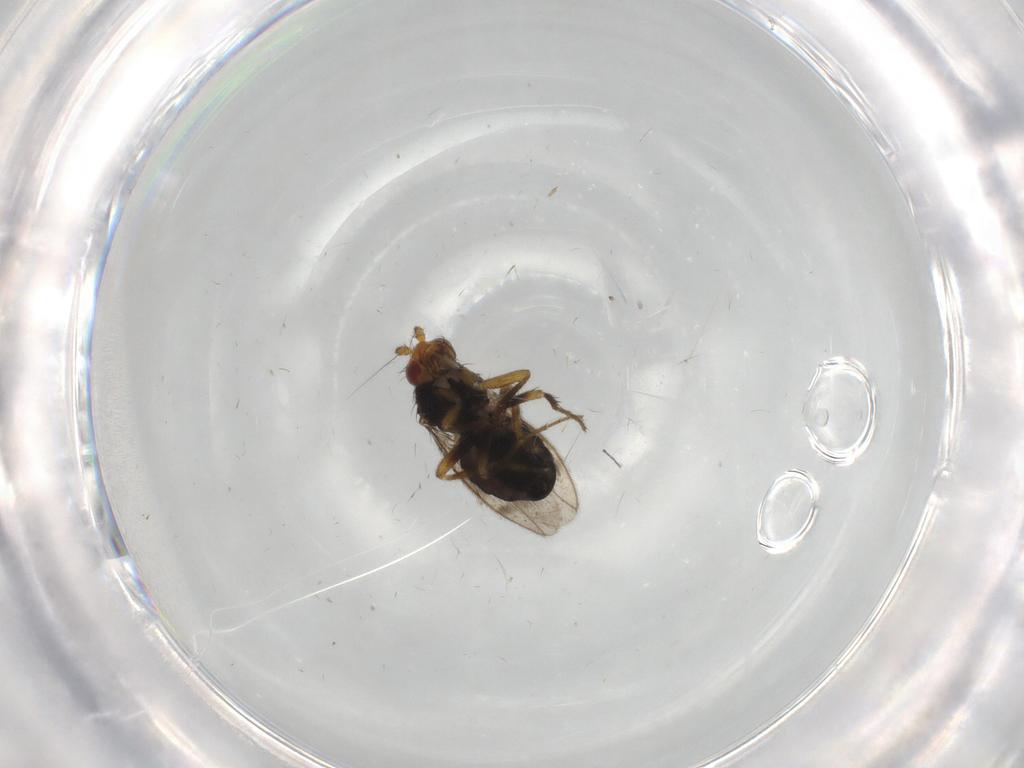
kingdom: Animalia
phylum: Arthropoda
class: Insecta
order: Diptera
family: Sphaeroceridae
